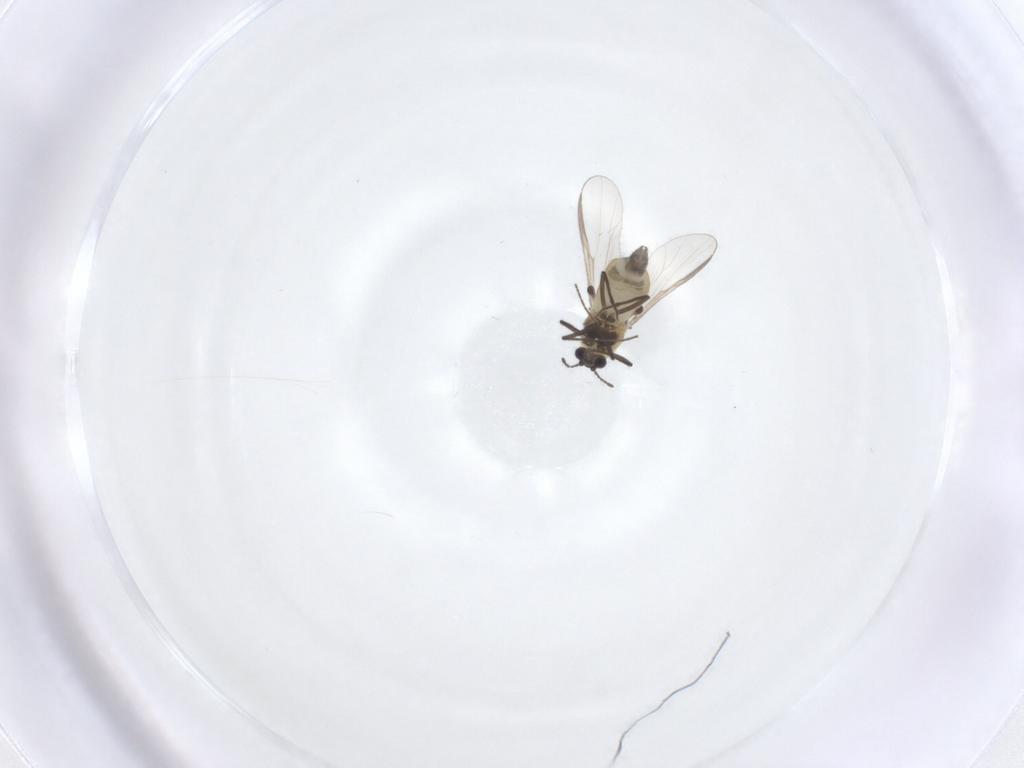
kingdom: Animalia
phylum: Arthropoda
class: Insecta
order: Diptera
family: Chironomidae
